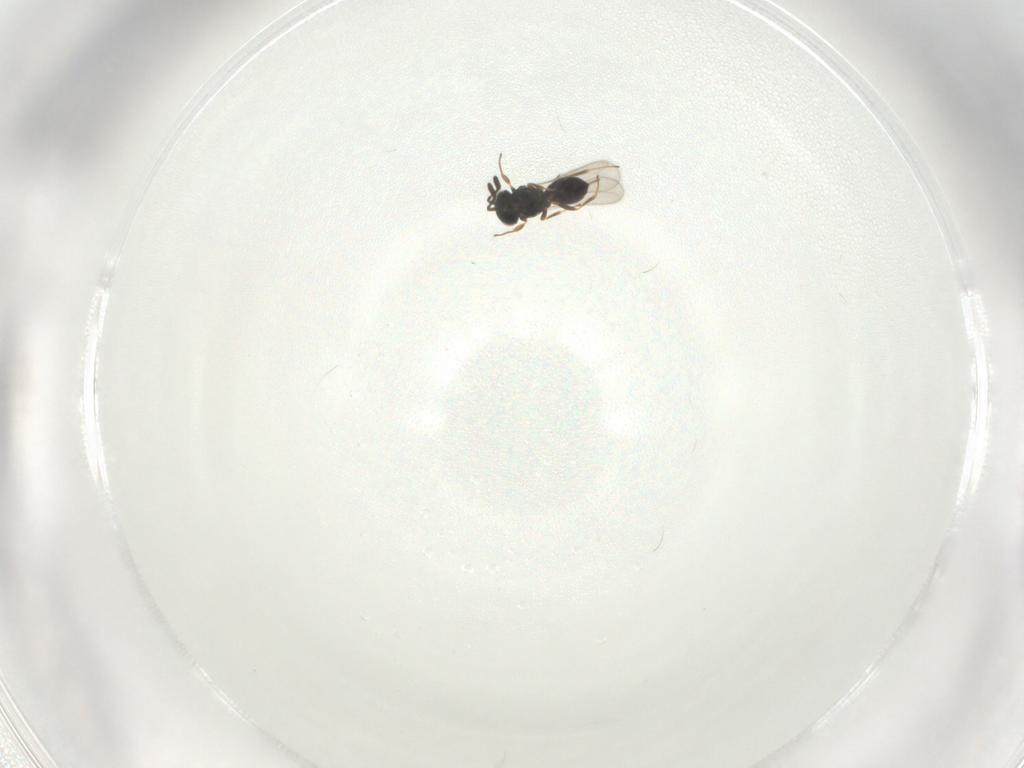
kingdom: Animalia
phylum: Arthropoda
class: Insecta
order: Hymenoptera
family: Scelionidae
